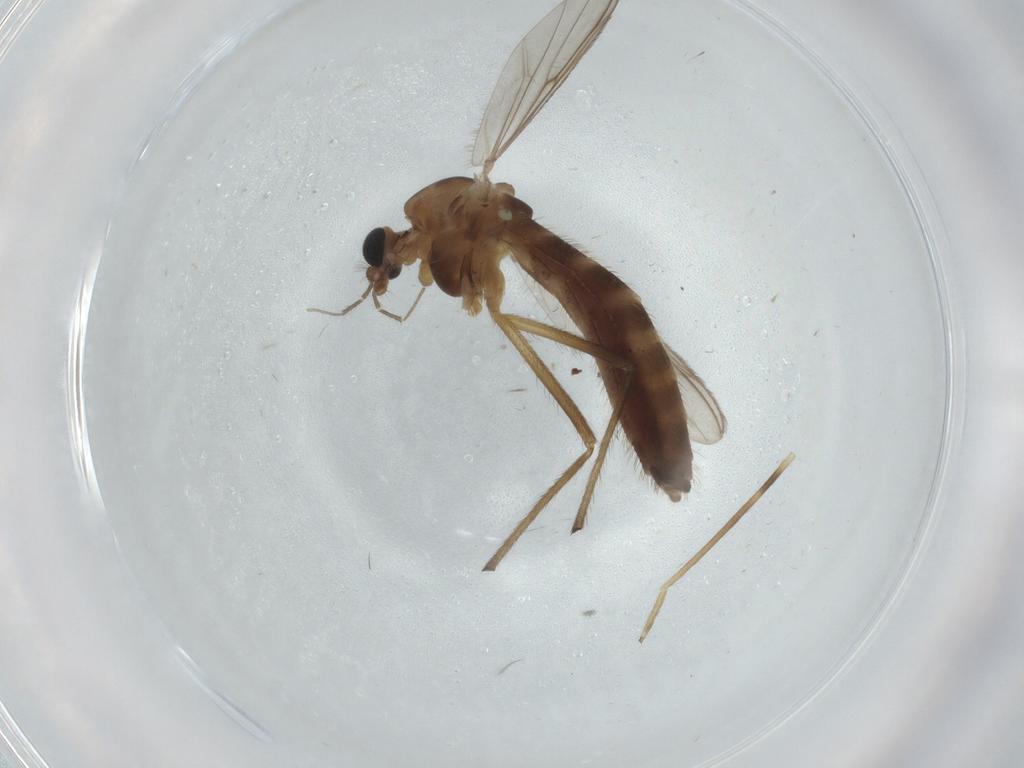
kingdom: Animalia
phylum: Arthropoda
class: Insecta
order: Diptera
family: Chironomidae
